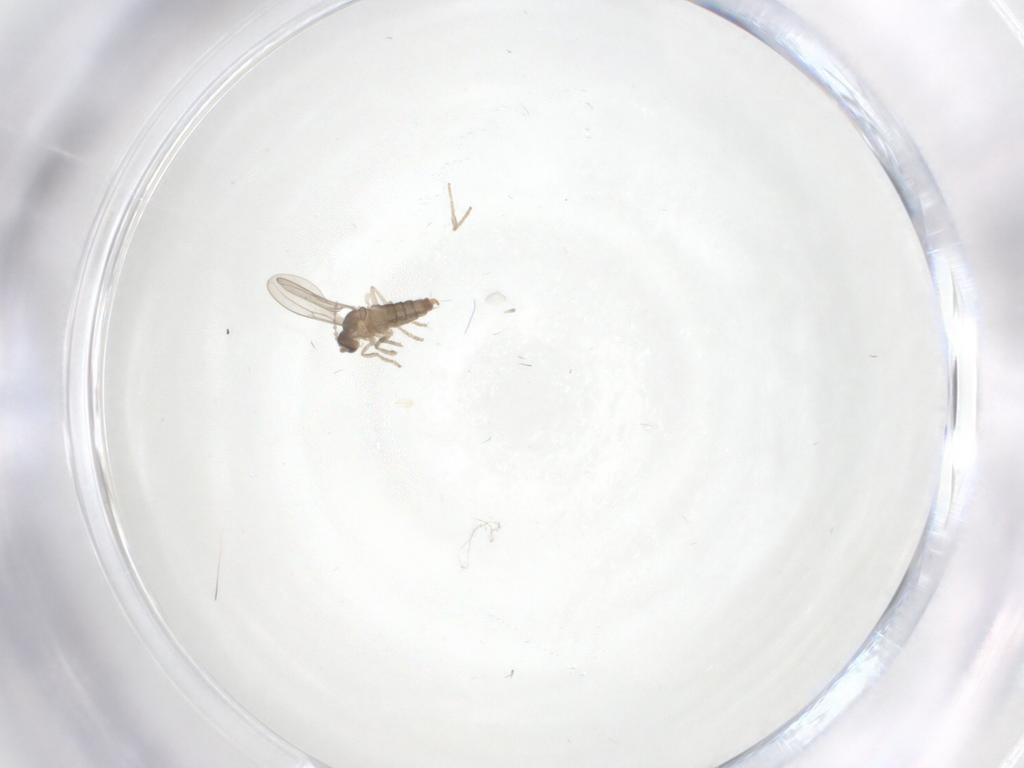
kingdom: Animalia
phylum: Arthropoda
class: Insecta
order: Diptera
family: Cecidomyiidae
